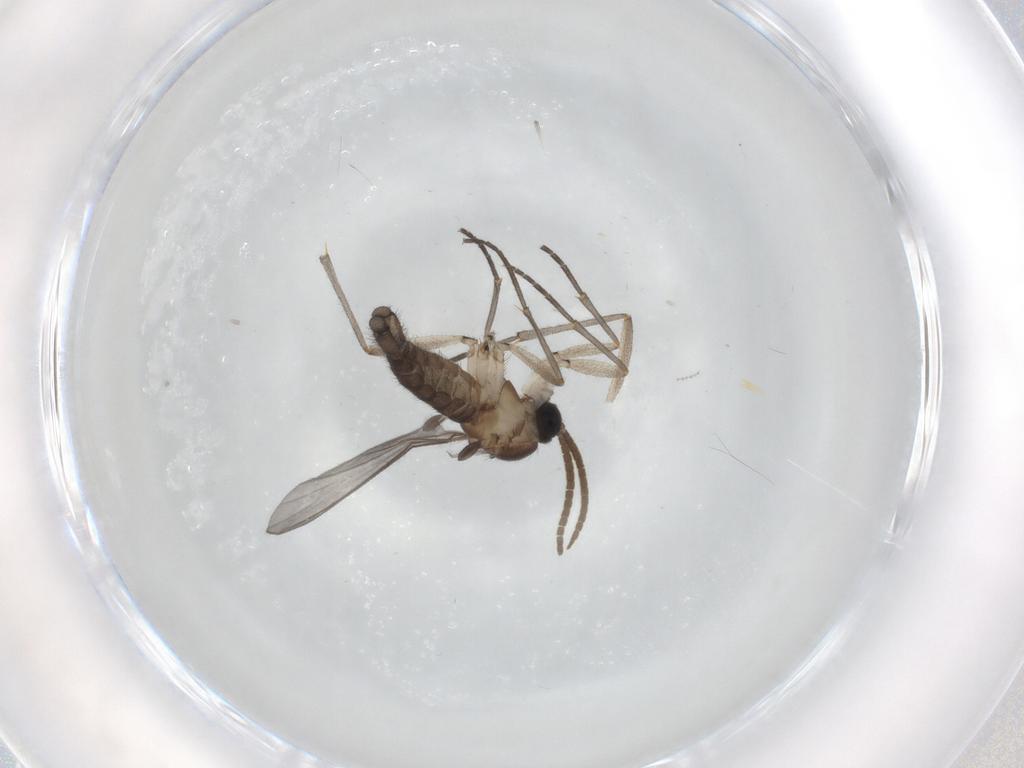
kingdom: Animalia
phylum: Arthropoda
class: Insecta
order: Diptera
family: Cecidomyiidae
